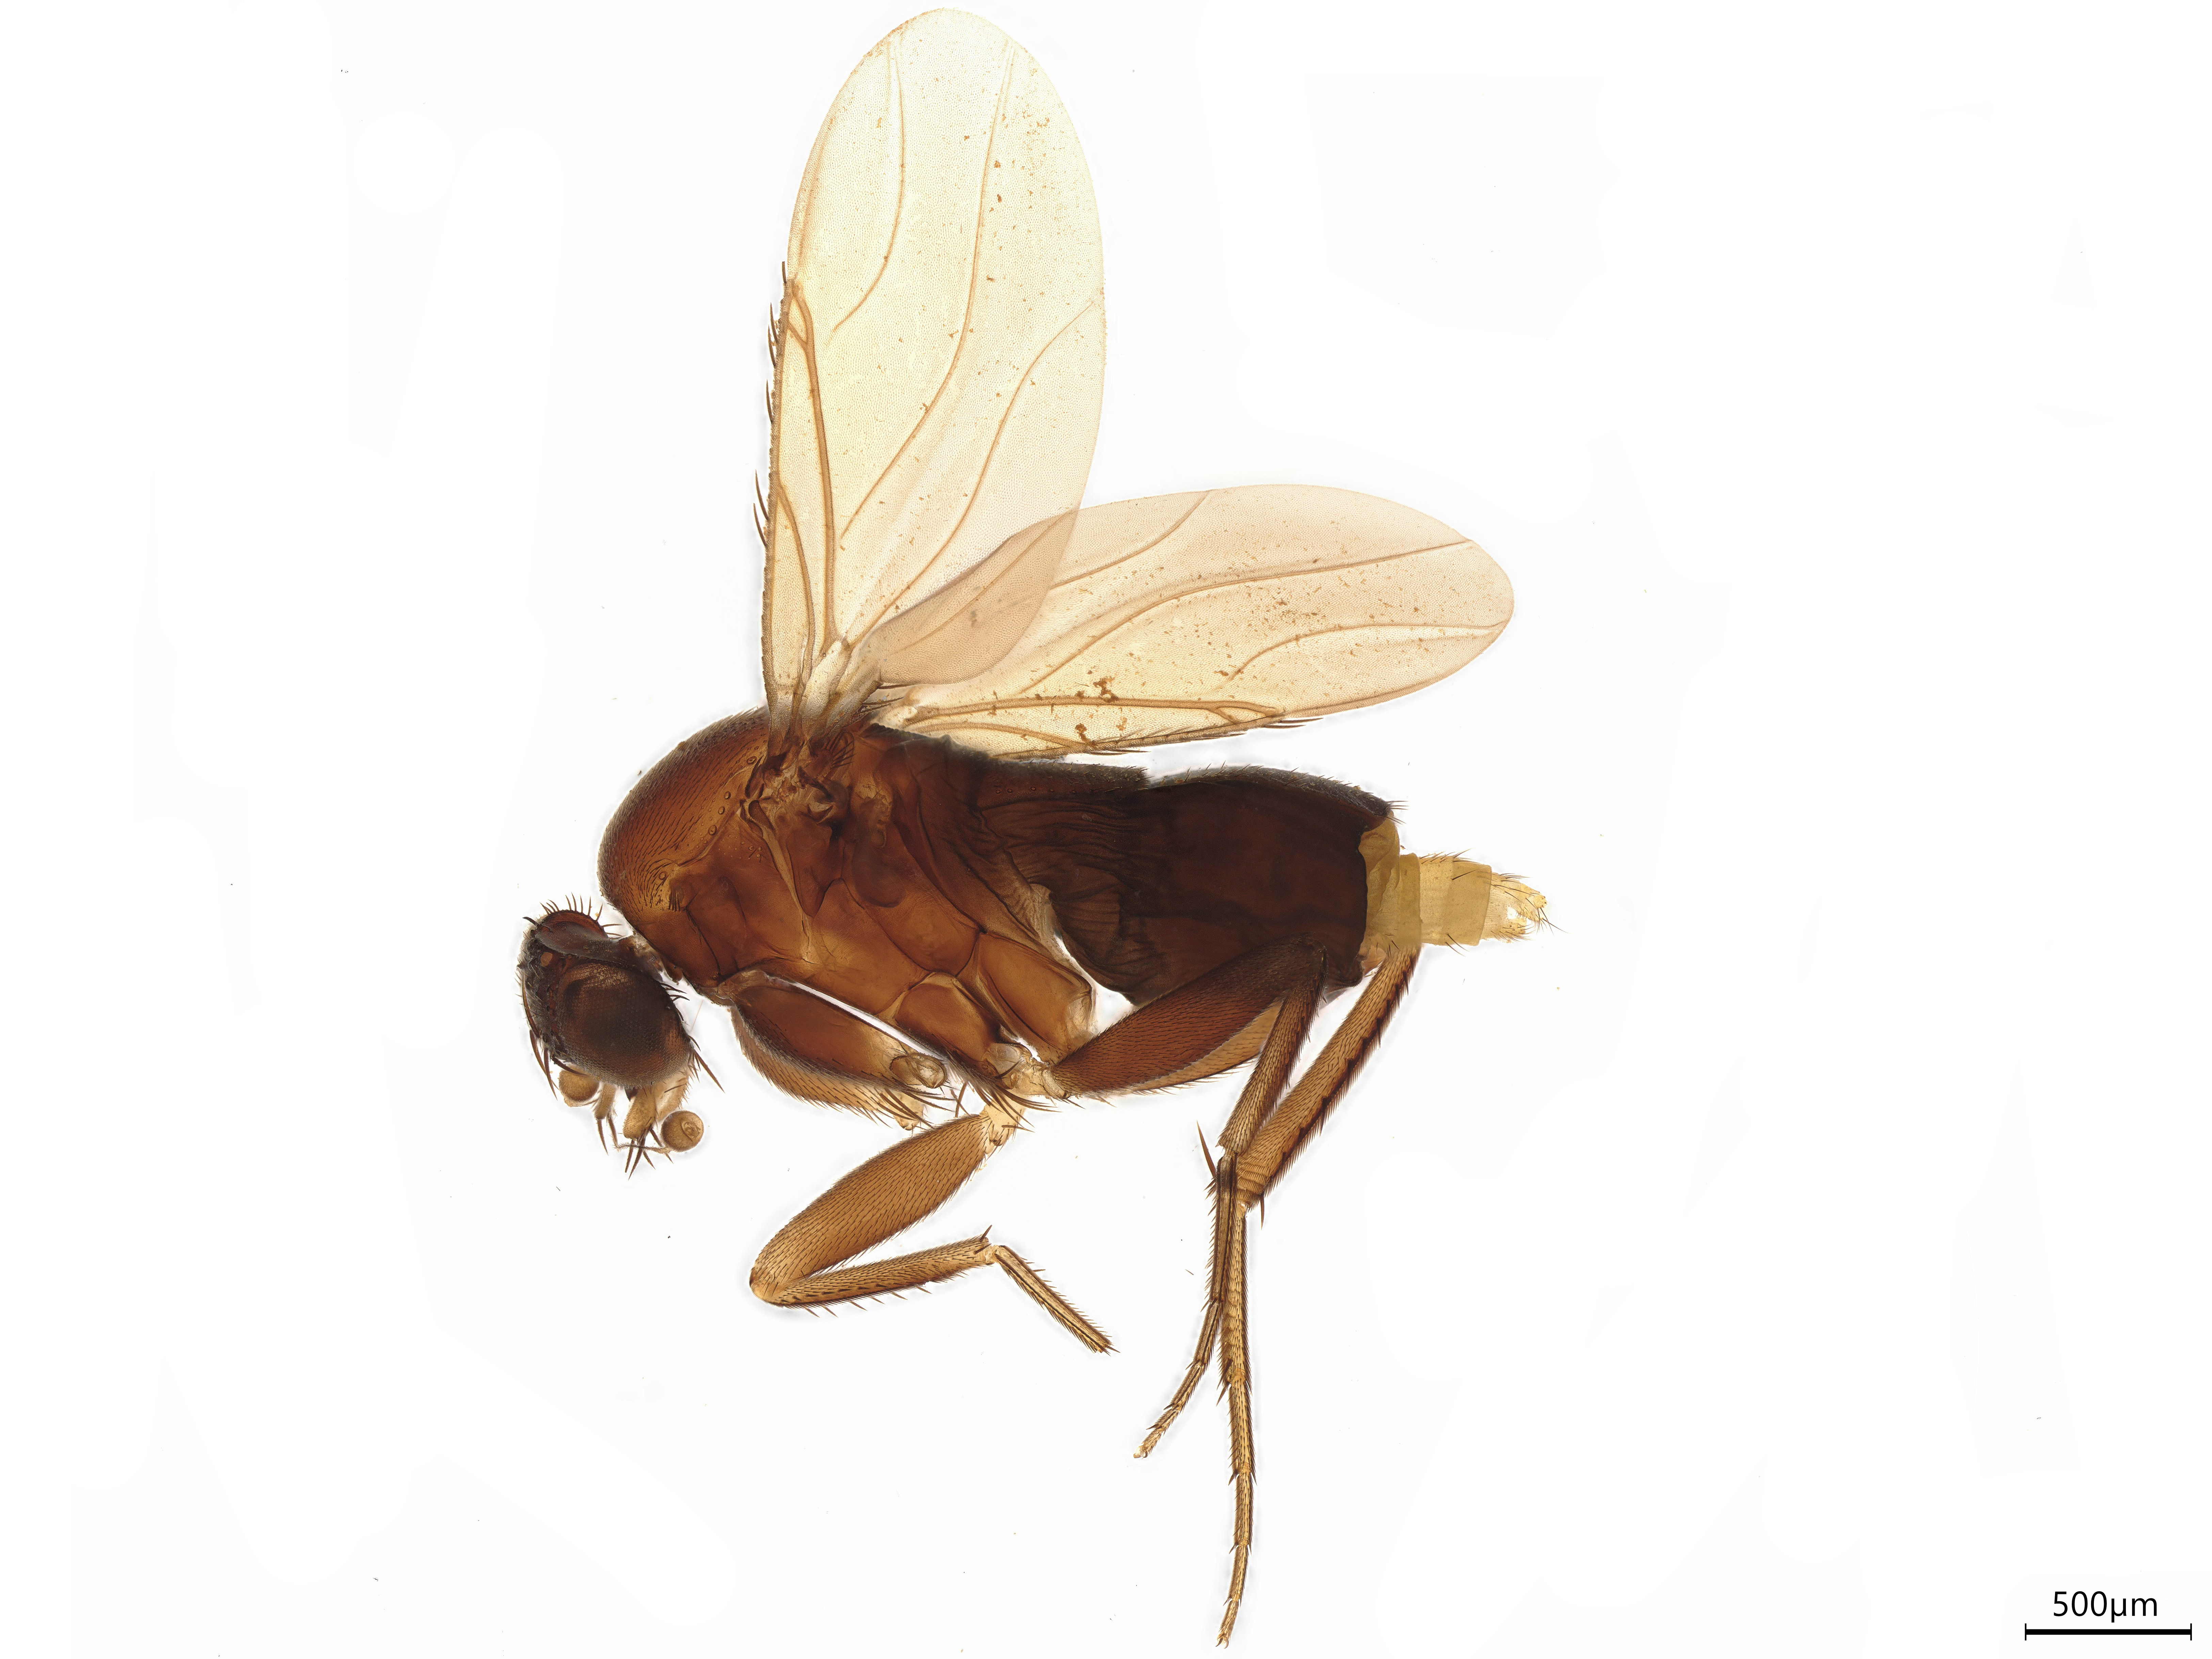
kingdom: Animalia
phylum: Arthropoda
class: Insecta
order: Diptera
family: Phoridae
